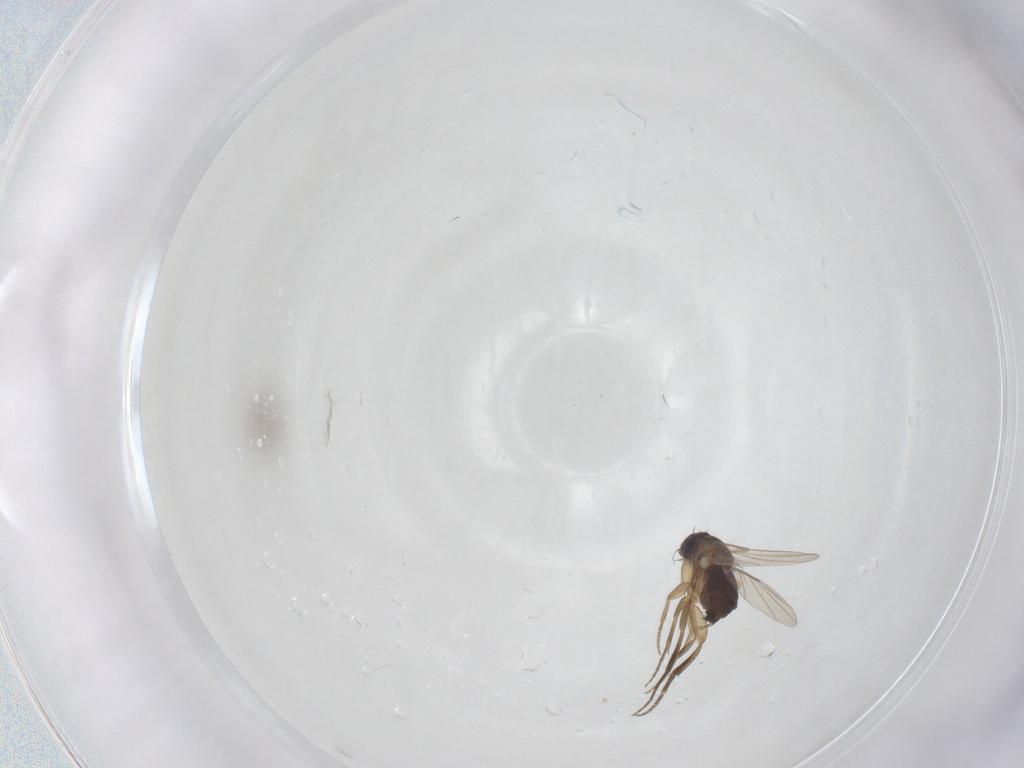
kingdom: Animalia
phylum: Arthropoda
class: Insecta
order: Diptera
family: Phoridae
